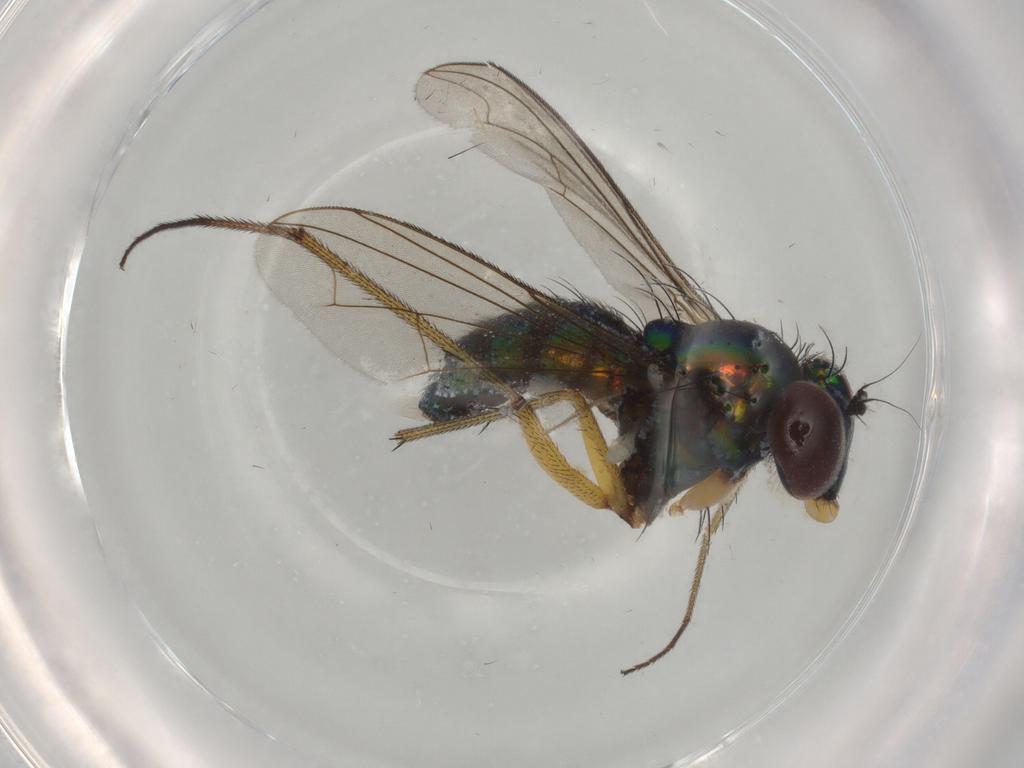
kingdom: Animalia
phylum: Arthropoda
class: Insecta
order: Diptera
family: Dolichopodidae
